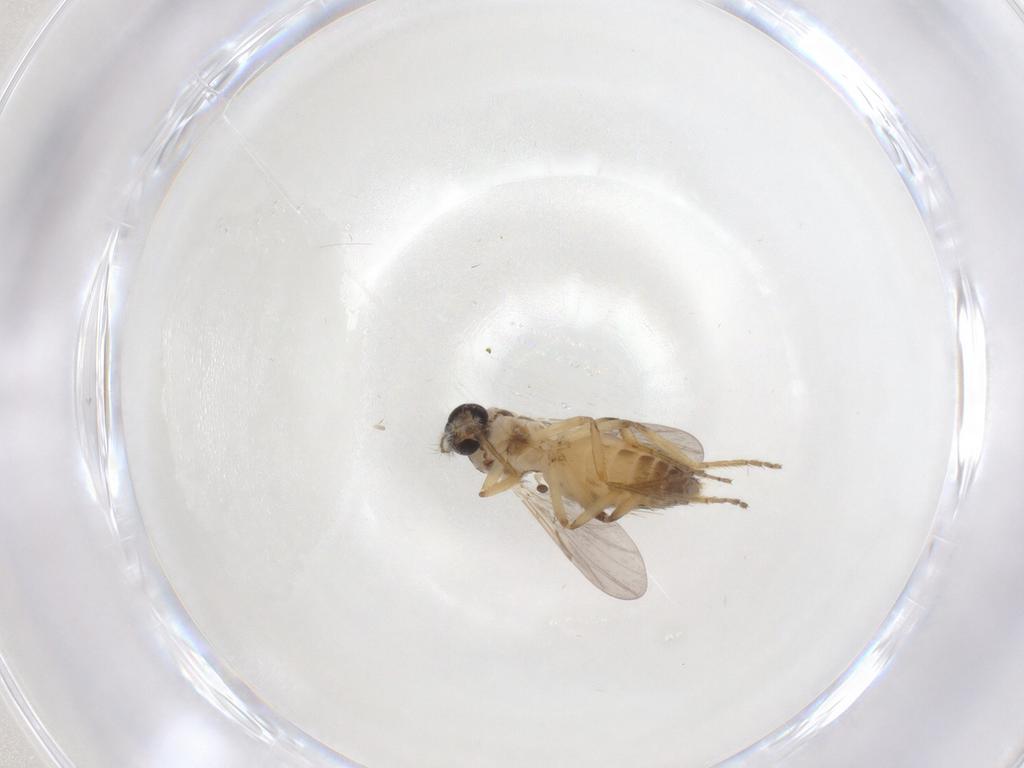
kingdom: Animalia
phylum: Arthropoda
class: Insecta
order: Diptera
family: Ceratopogonidae
